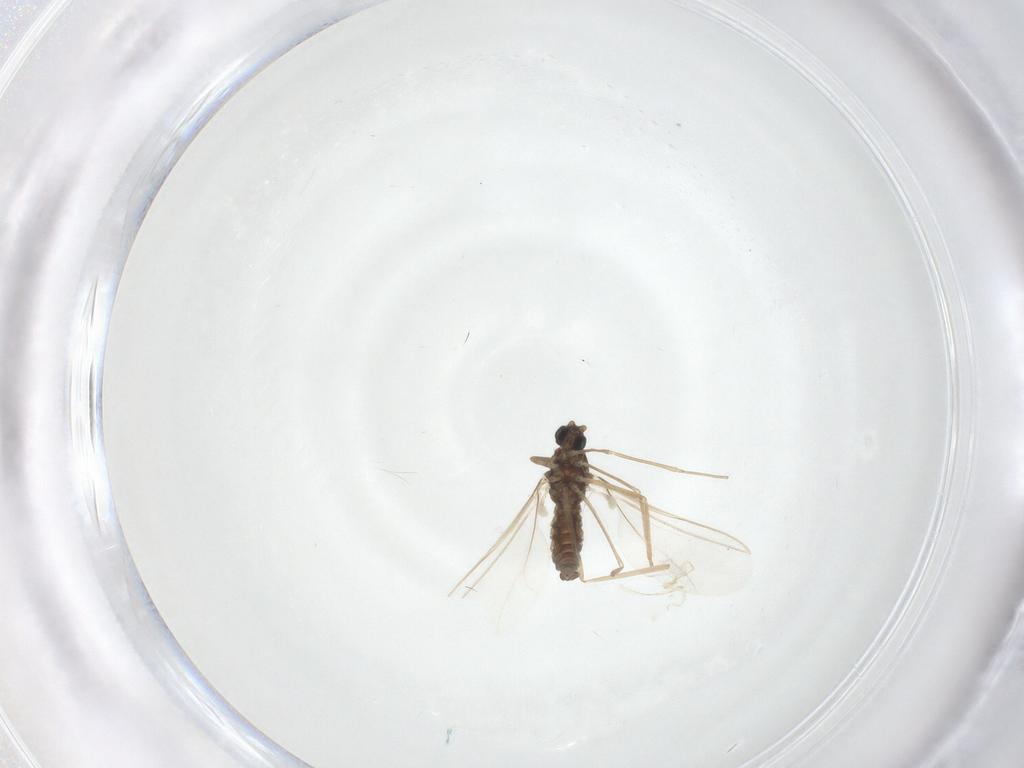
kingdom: Animalia
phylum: Arthropoda
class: Insecta
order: Diptera
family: Cecidomyiidae
